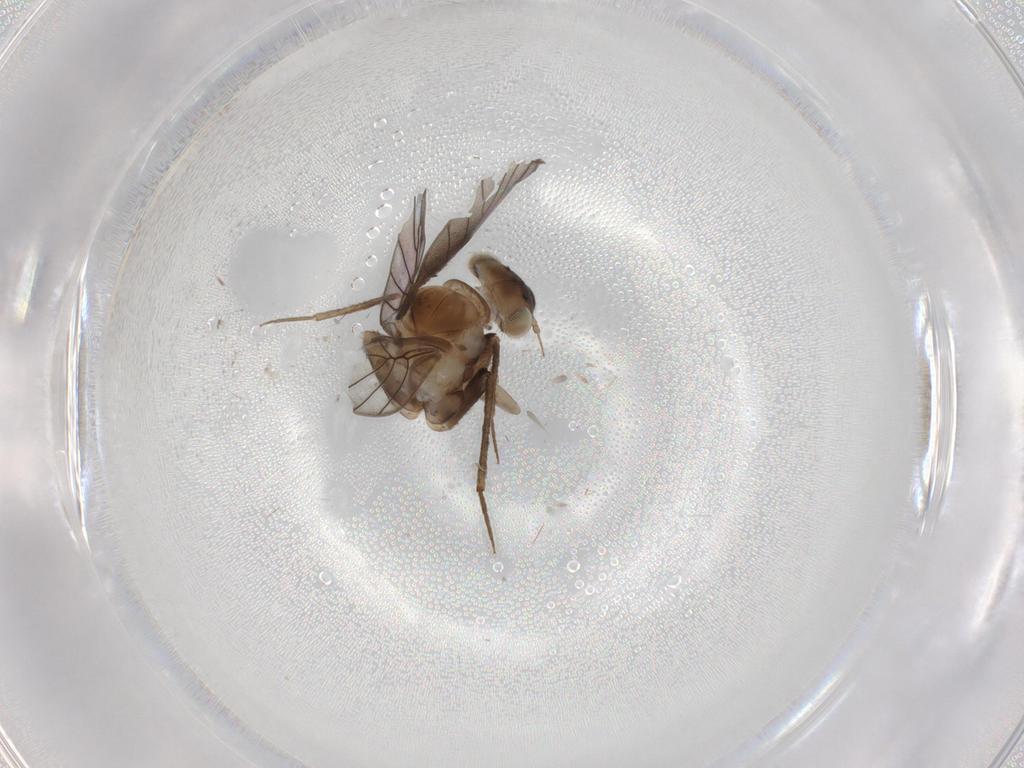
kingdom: Animalia
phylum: Arthropoda
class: Insecta
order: Psocodea
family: Lepidopsocidae
